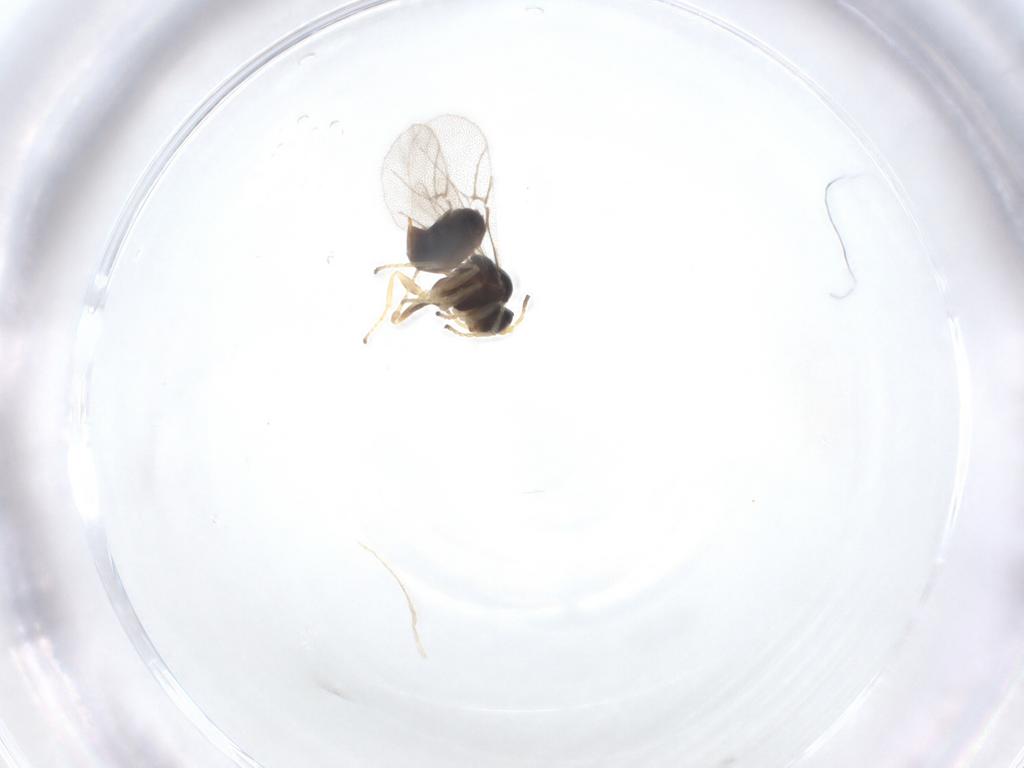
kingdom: Animalia
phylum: Arthropoda
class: Insecta
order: Hymenoptera
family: Cynipidae
